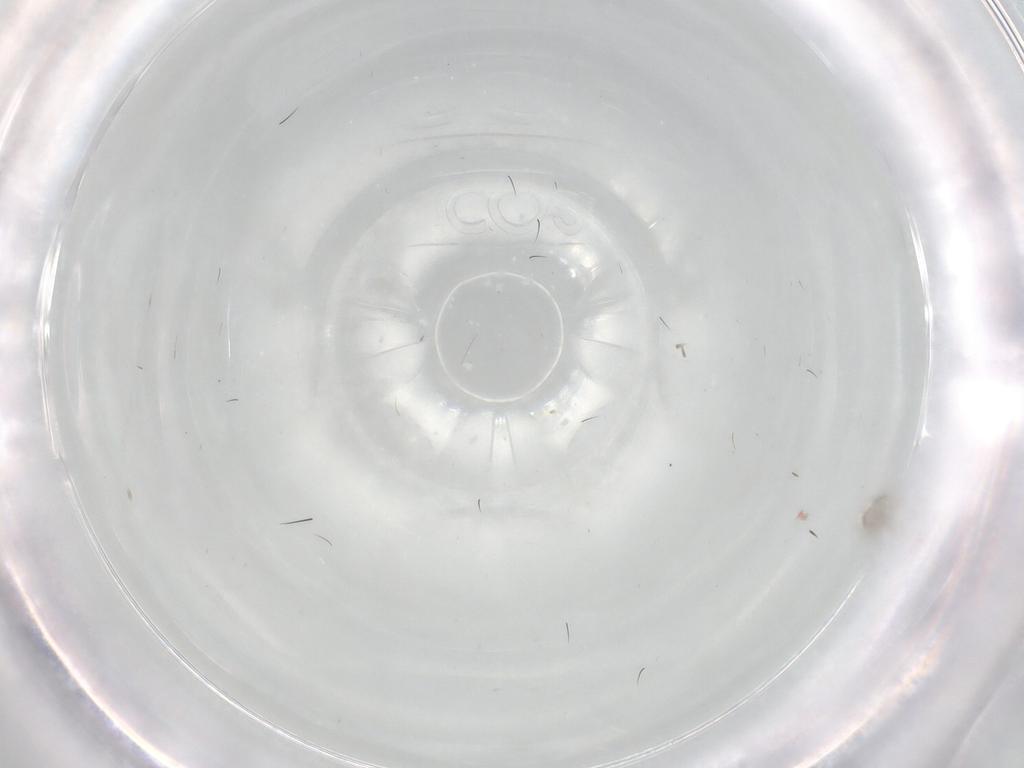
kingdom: Animalia
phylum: Arthropoda
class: Insecta
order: Diptera
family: Cecidomyiidae
